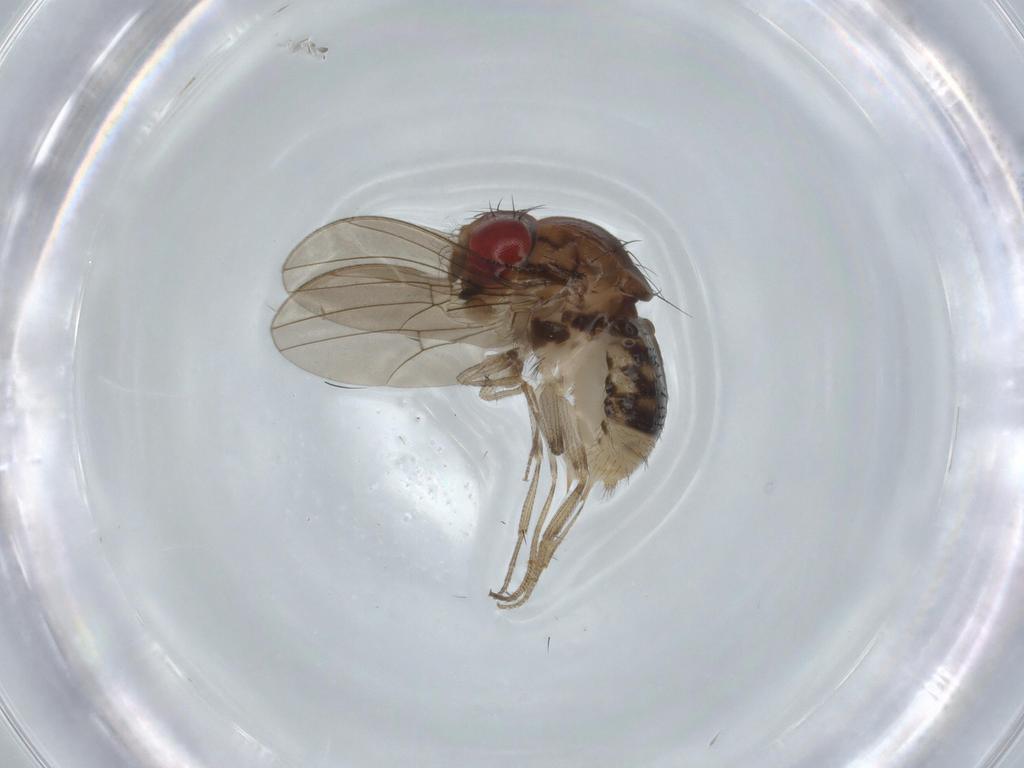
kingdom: Animalia
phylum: Arthropoda
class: Insecta
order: Diptera
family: Drosophilidae
